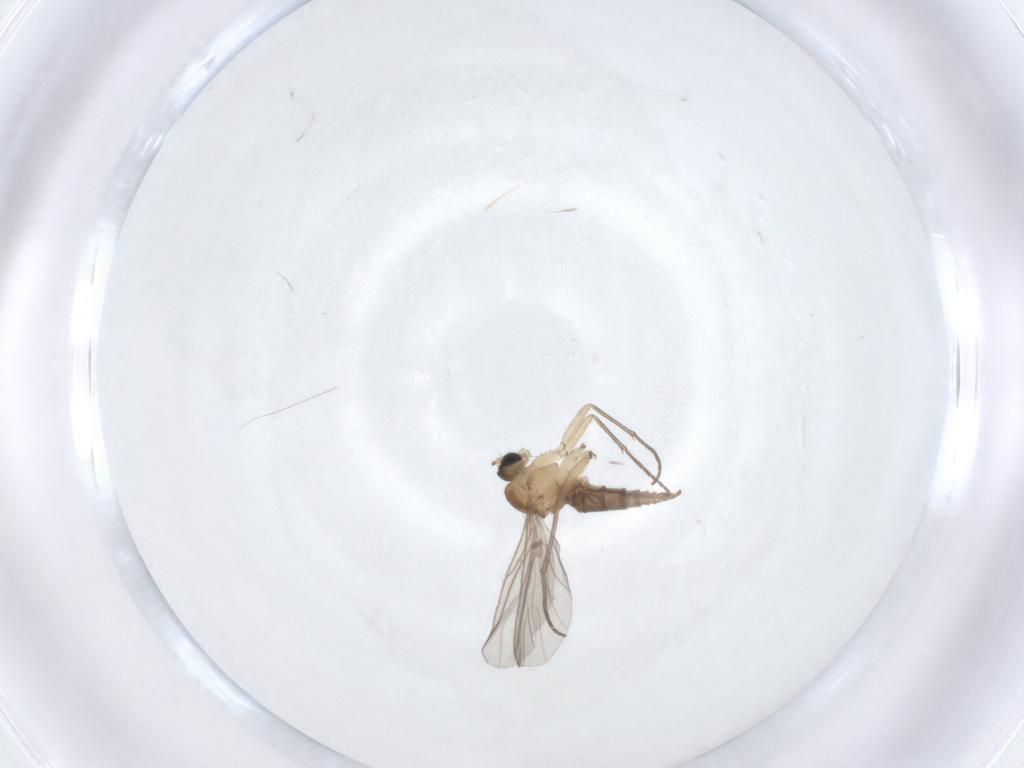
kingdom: Animalia
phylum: Arthropoda
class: Insecta
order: Diptera
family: Sciaridae
